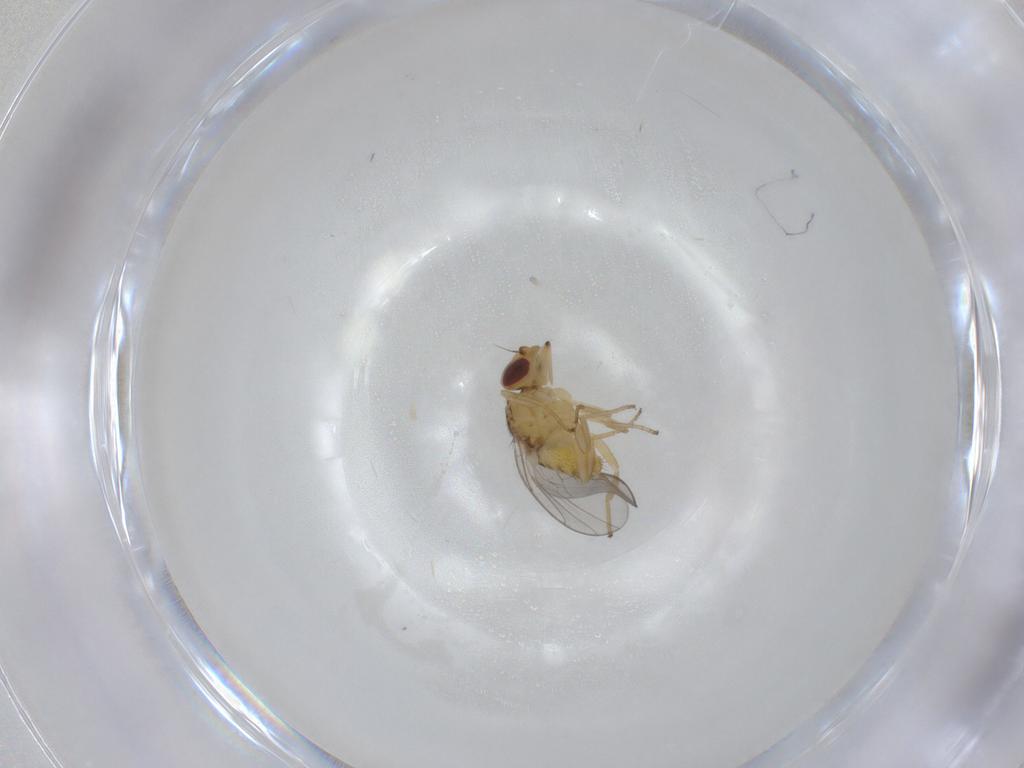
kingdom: Animalia
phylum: Arthropoda
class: Insecta
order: Diptera
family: Chloropidae
